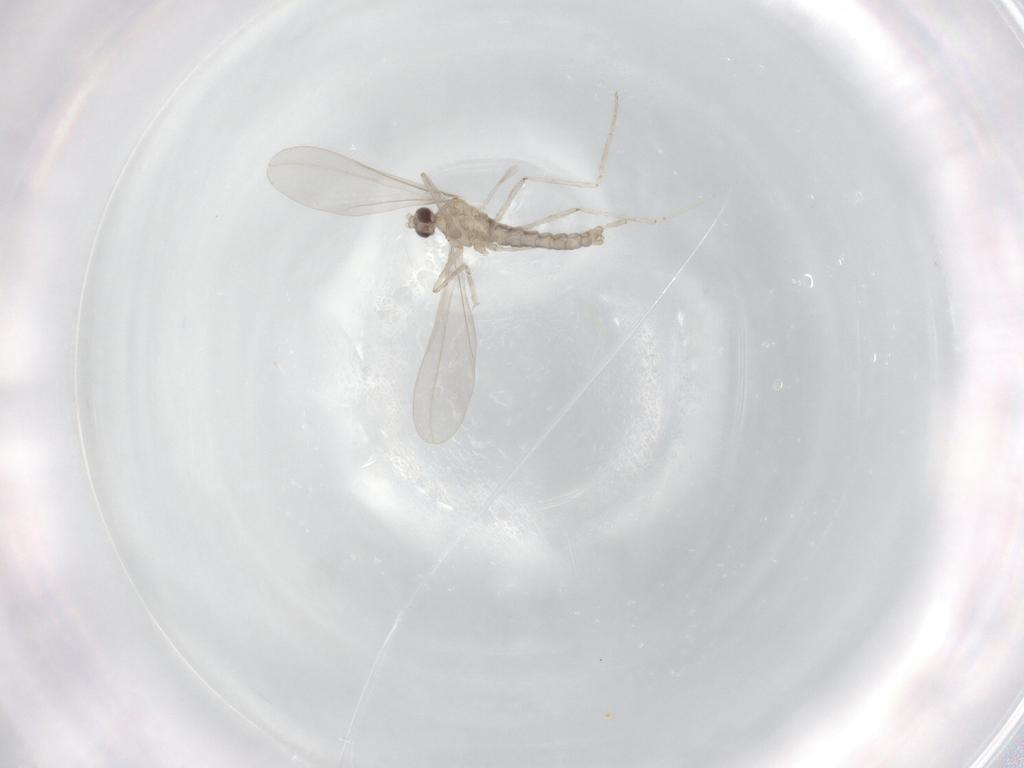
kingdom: Animalia
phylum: Arthropoda
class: Insecta
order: Diptera
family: Cecidomyiidae
